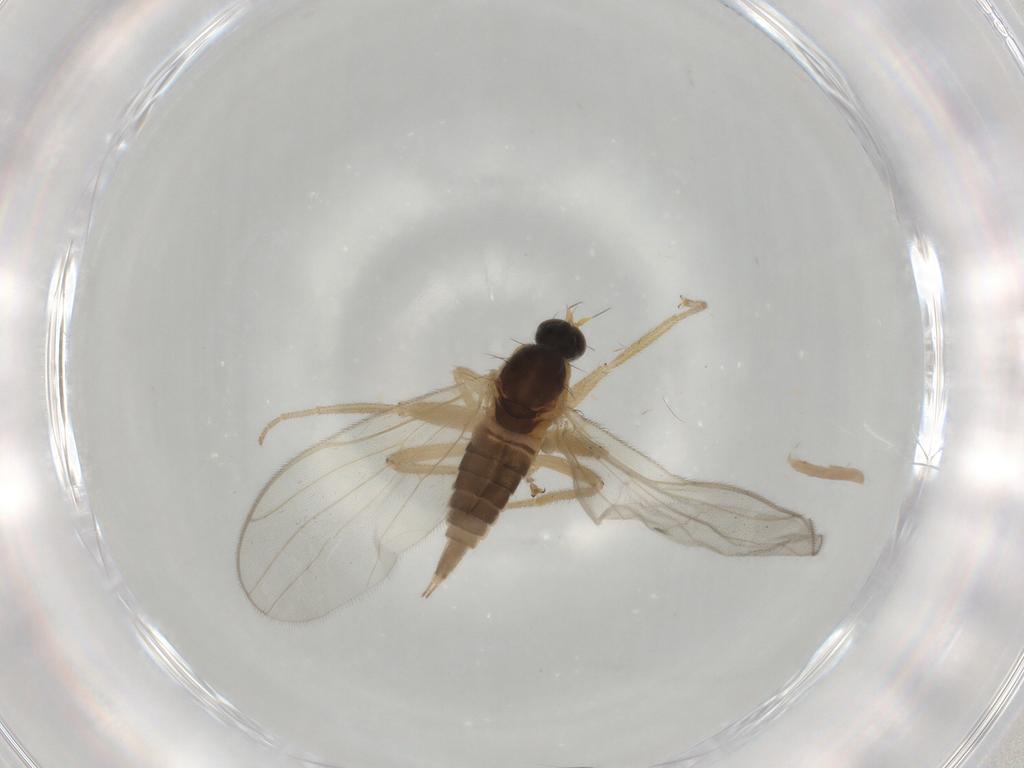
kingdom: Animalia
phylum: Arthropoda
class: Insecta
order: Diptera
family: Hybotidae
